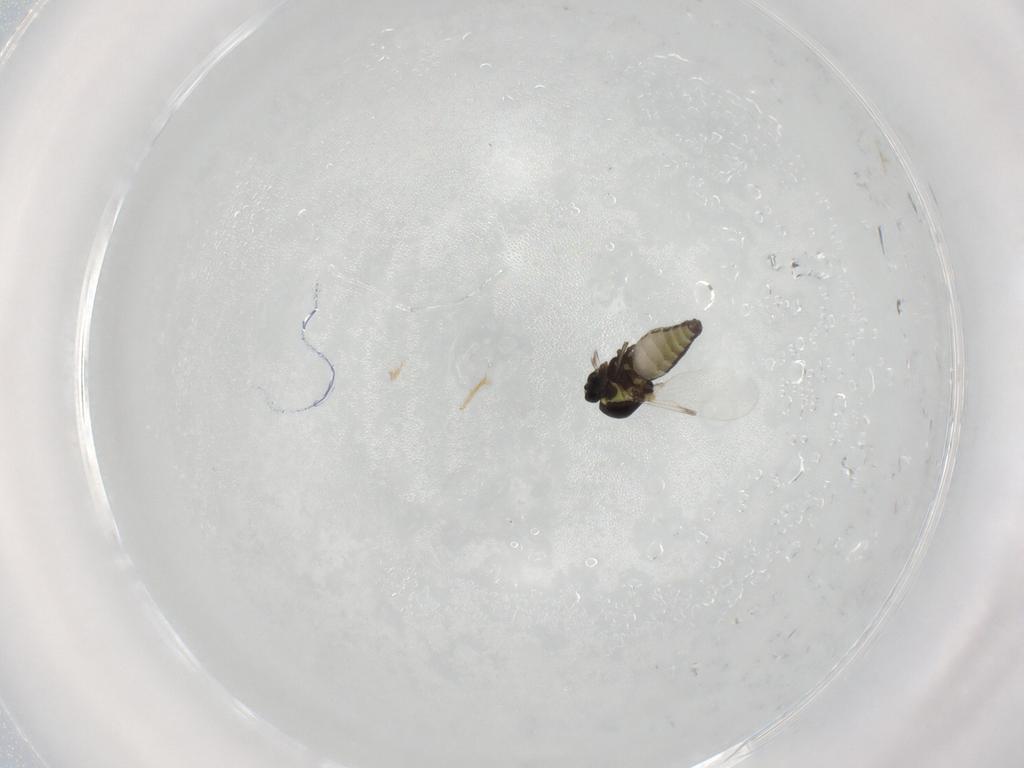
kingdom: Animalia
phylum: Arthropoda
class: Insecta
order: Diptera
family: Ceratopogonidae
